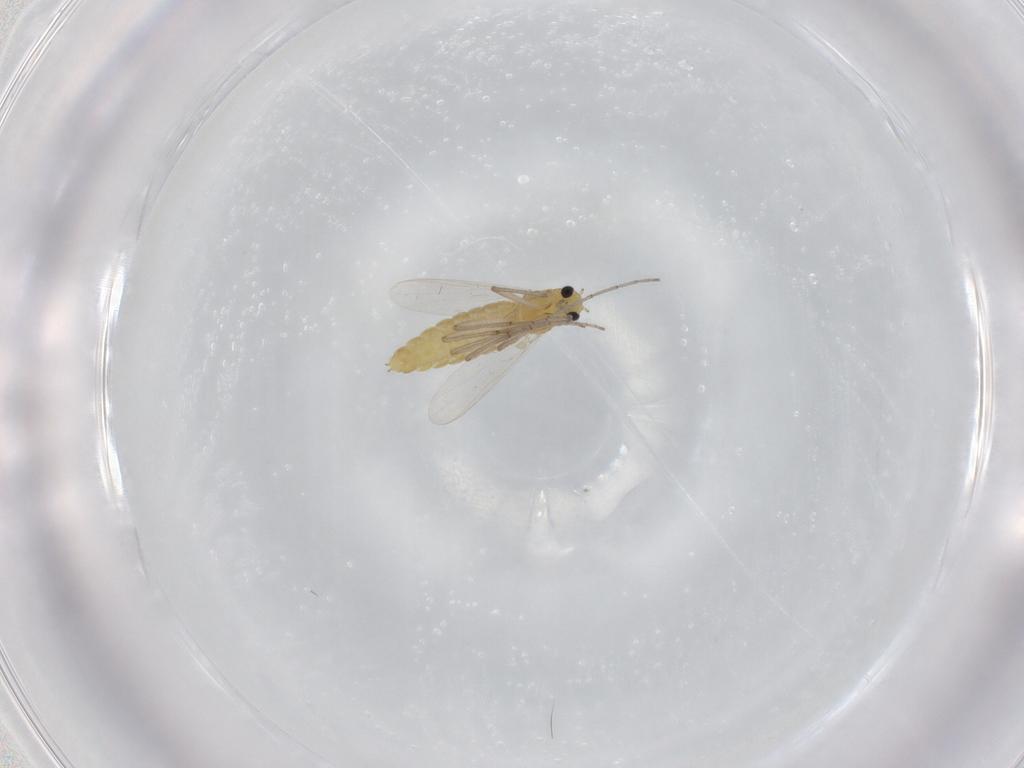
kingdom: Animalia
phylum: Arthropoda
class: Insecta
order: Diptera
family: Chironomidae
